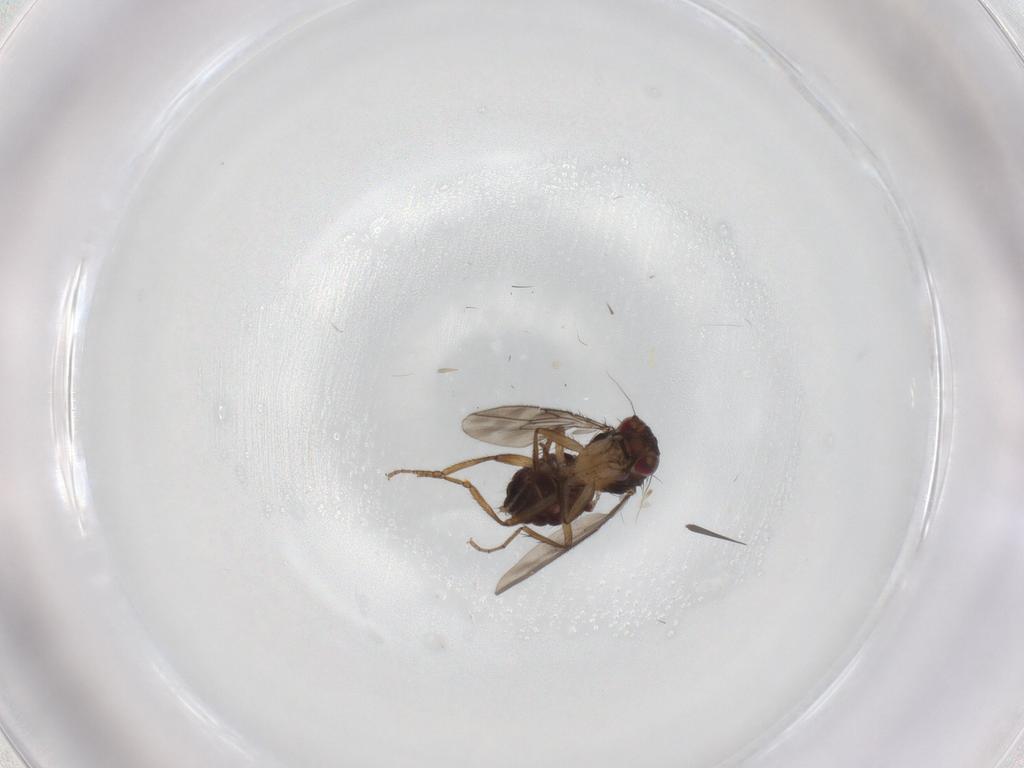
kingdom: Animalia
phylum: Arthropoda
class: Insecta
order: Diptera
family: Sphaeroceridae
